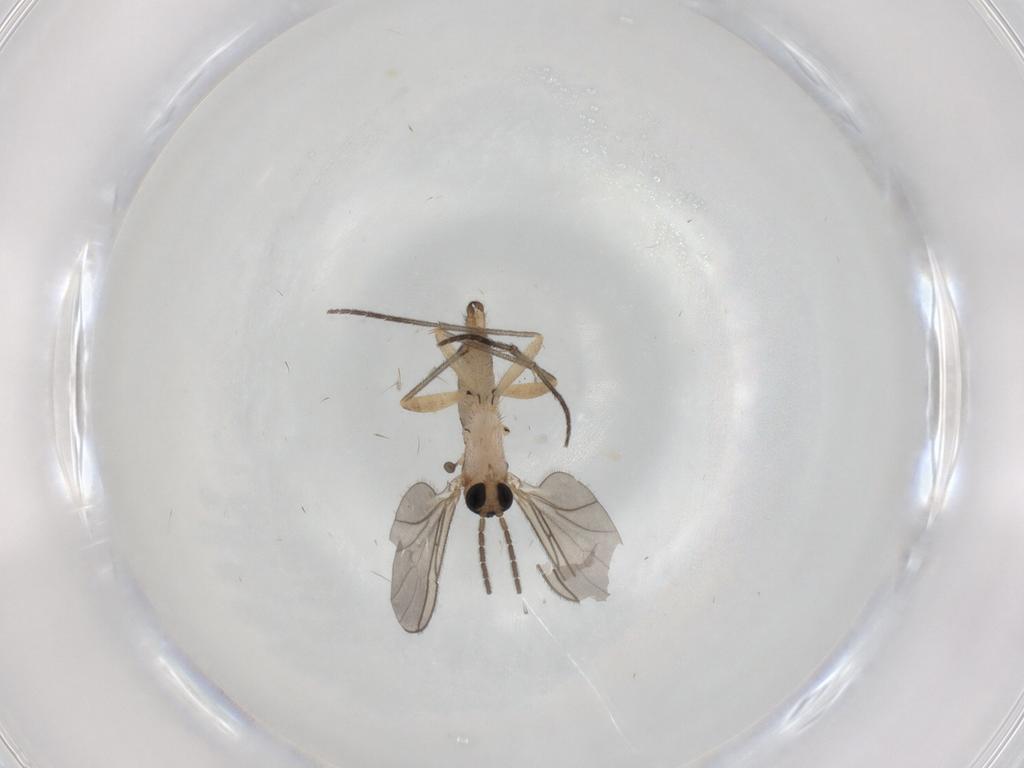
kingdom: Animalia
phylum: Arthropoda
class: Insecta
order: Diptera
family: Sciaridae
